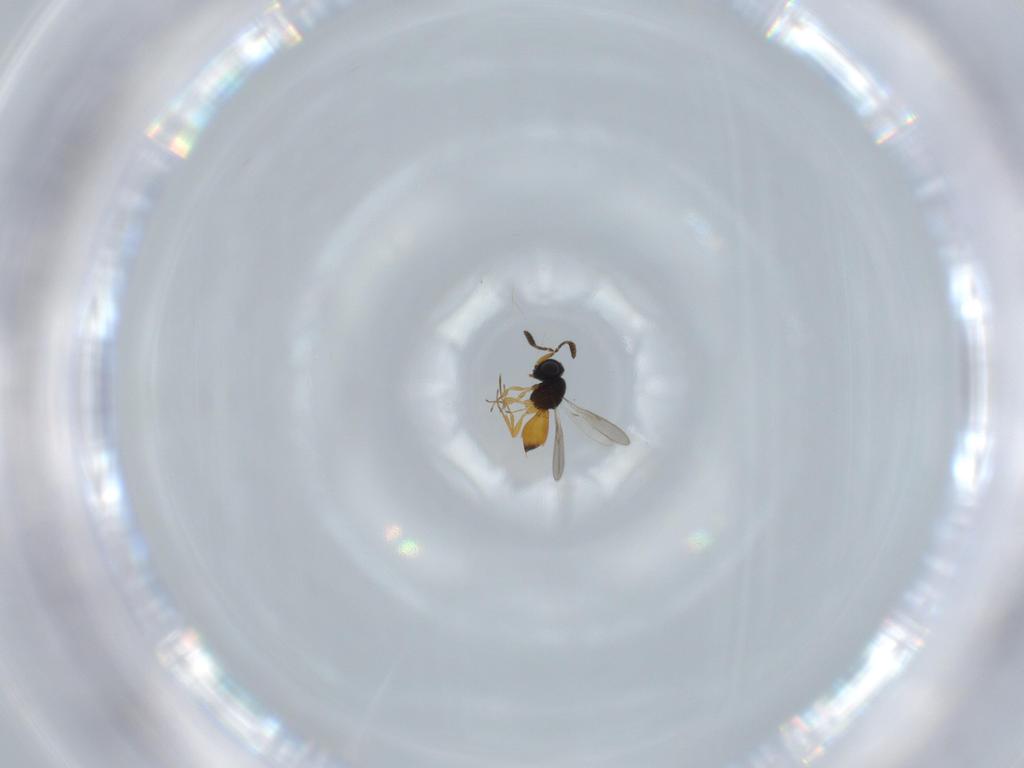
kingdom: Animalia
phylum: Arthropoda
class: Insecta
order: Hymenoptera
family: Scelionidae
